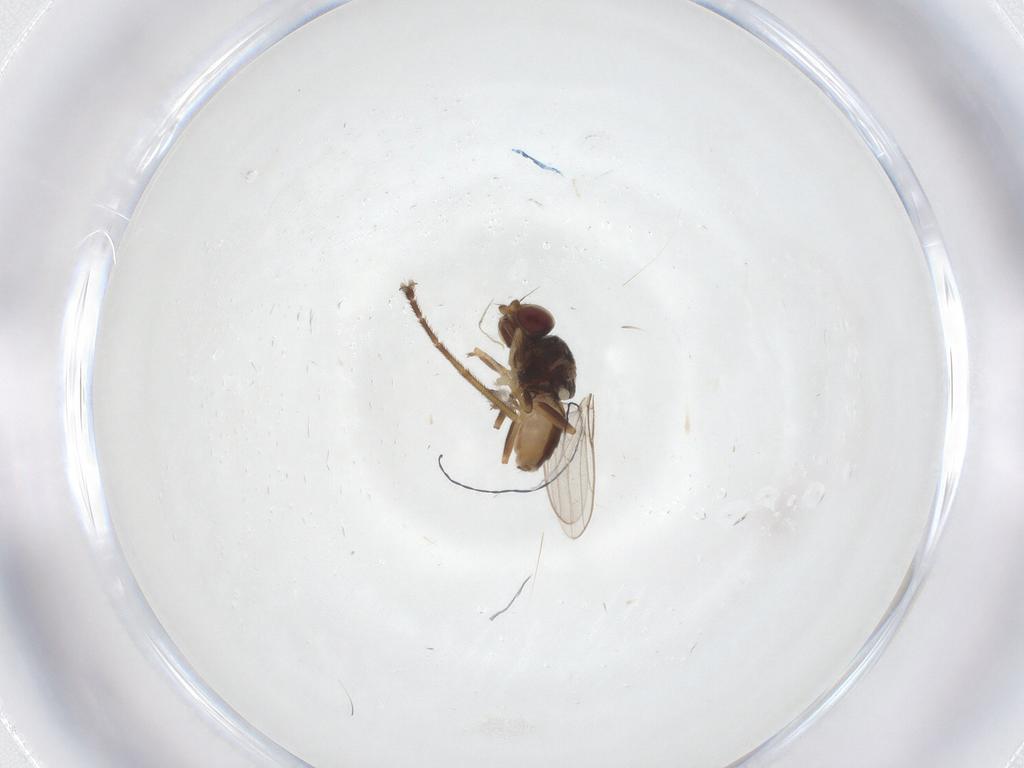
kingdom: Animalia
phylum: Arthropoda
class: Insecta
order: Diptera
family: Chloropidae
